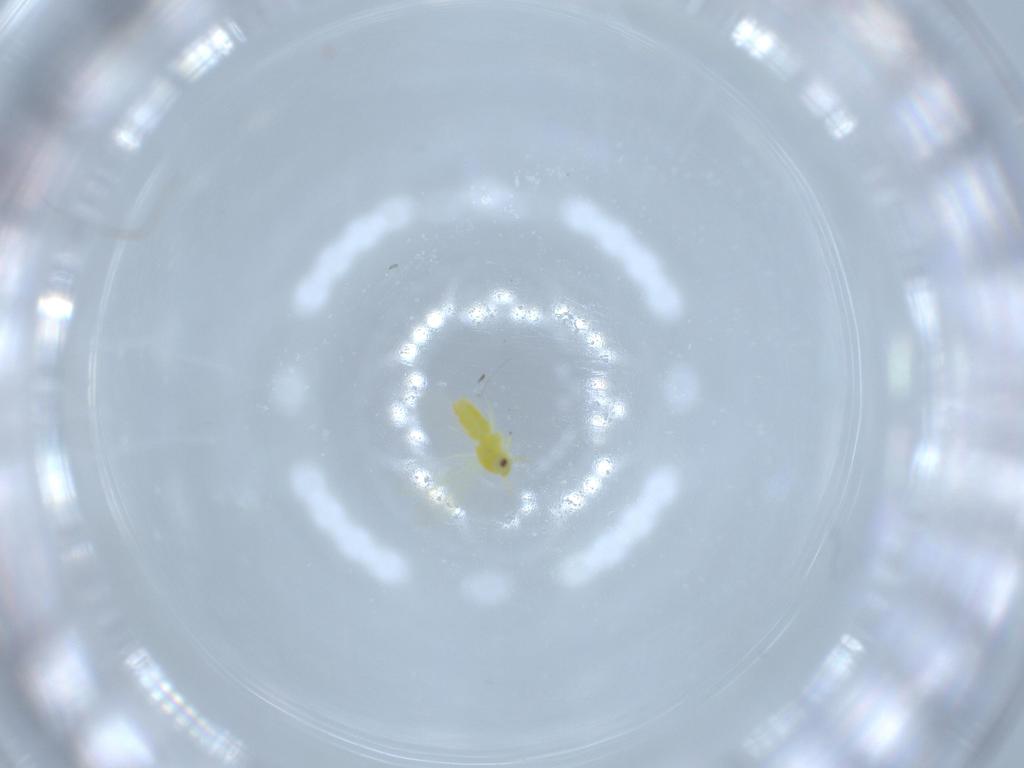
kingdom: Animalia
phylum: Arthropoda
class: Insecta
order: Hemiptera
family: Aleyrodidae
